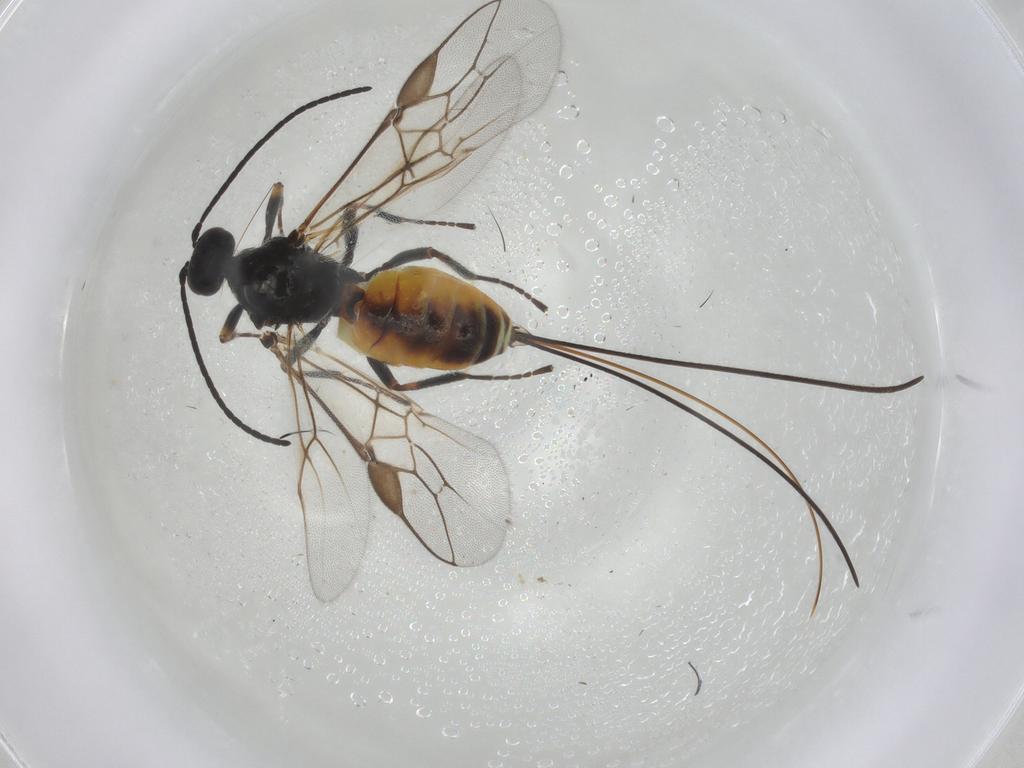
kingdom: Animalia
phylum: Arthropoda
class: Insecta
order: Hymenoptera
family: Braconidae
